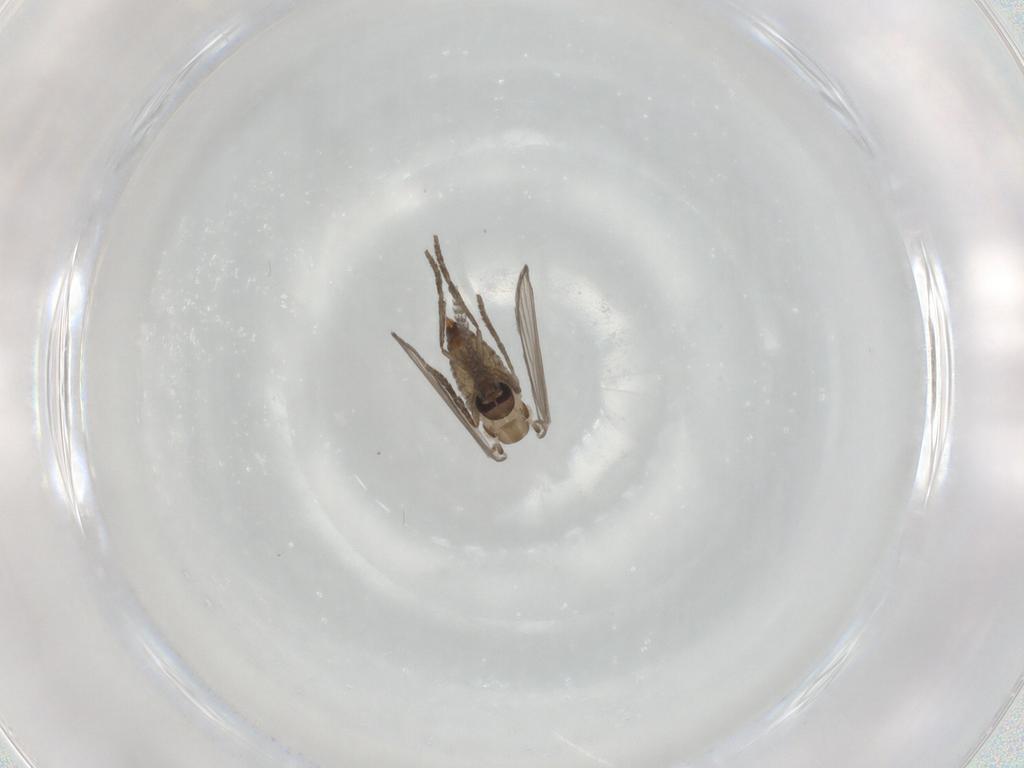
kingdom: Animalia
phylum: Arthropoda
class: Insecta
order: Diptera
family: Psychodidae
